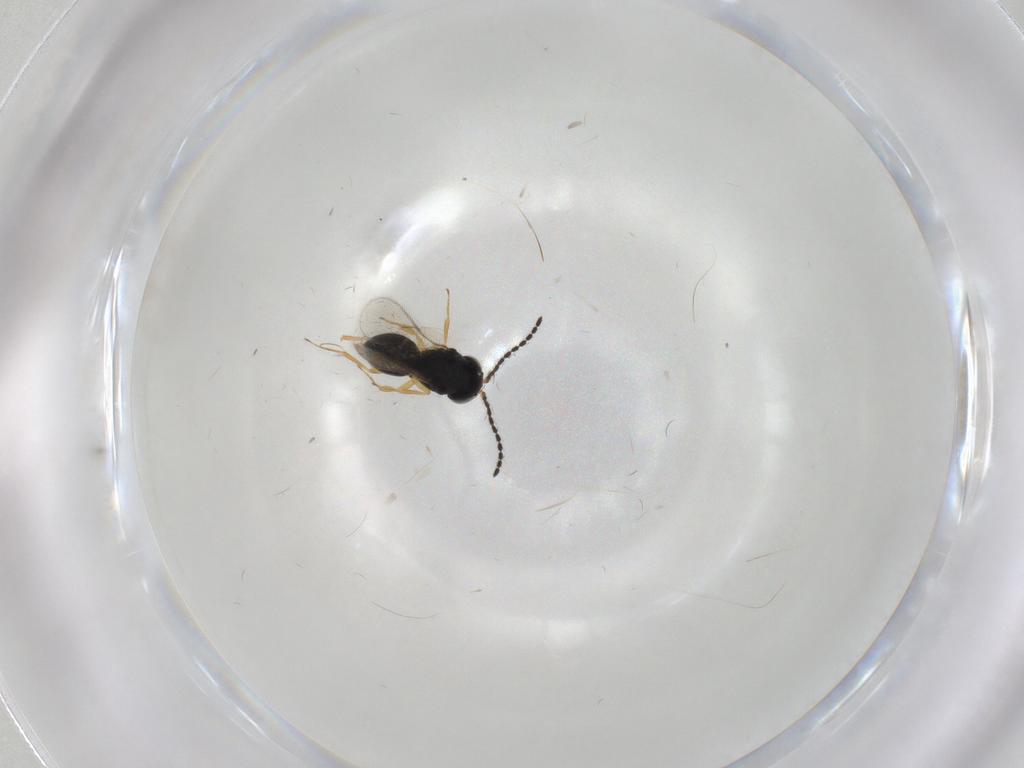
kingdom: Animalia
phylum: Arthropoda
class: Insecta
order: Hymenoptera
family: Scelionidae
